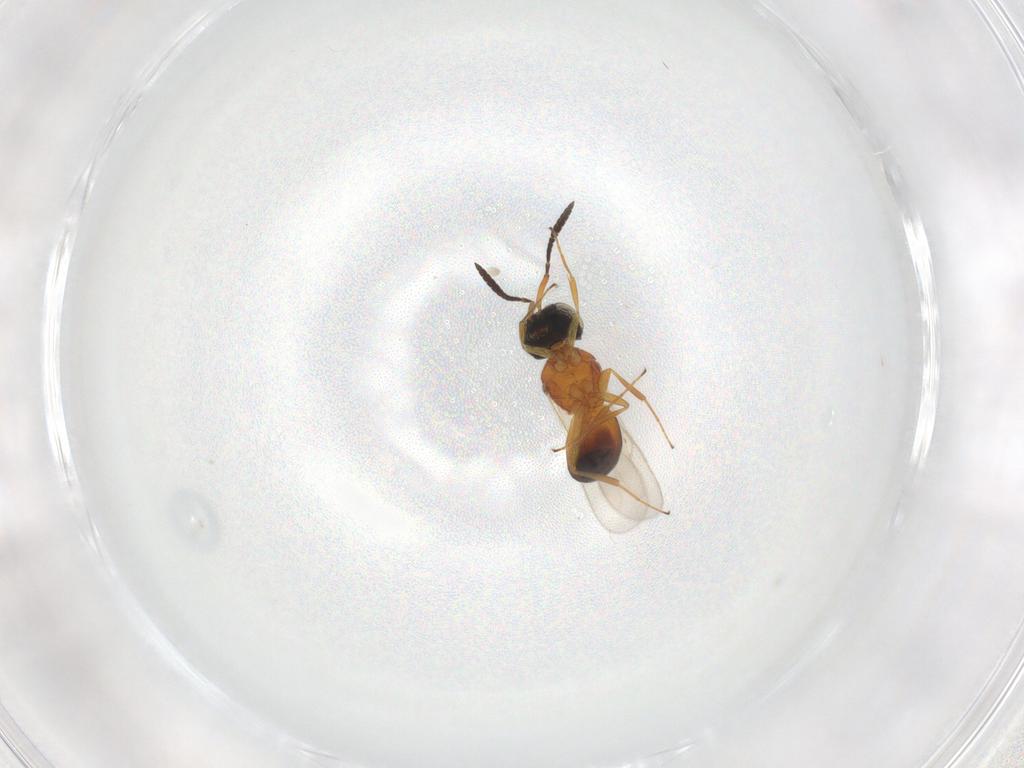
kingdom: Animalia
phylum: Arthropoda
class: Insecta
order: Hymenoptera
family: Scelionidae
